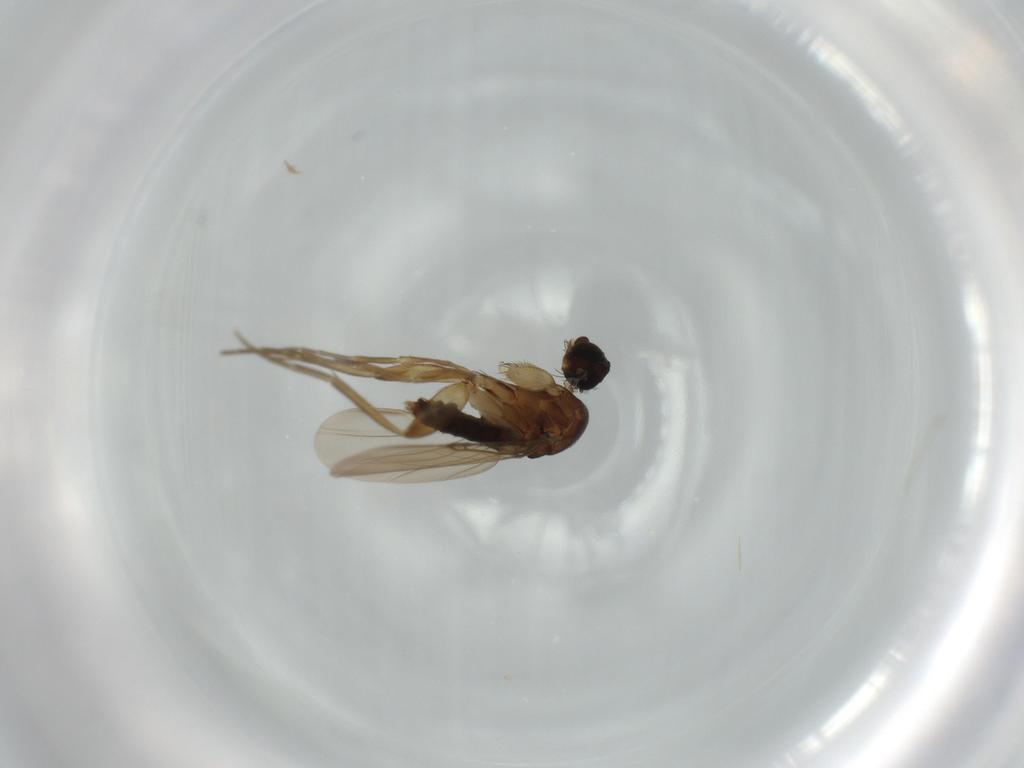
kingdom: Animalia
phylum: Arthropoda
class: Insecta
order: Diptera
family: Phoridae
